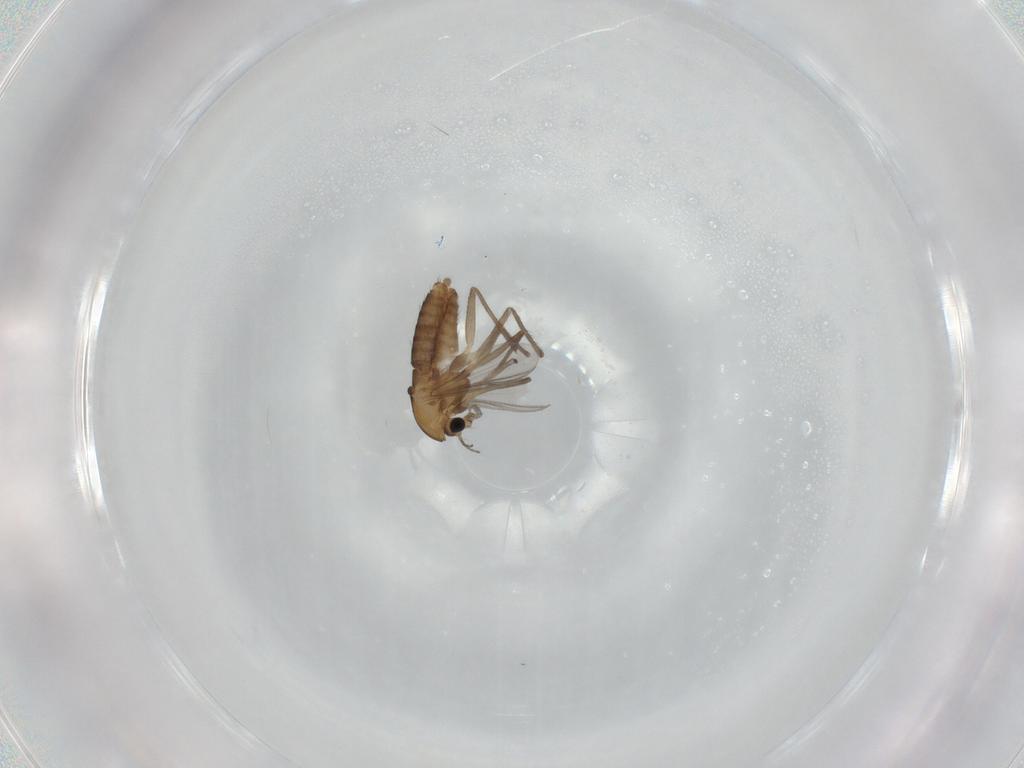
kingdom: Animalia
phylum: Arthropoda
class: Insecta
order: Diptera
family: Chironomidae
